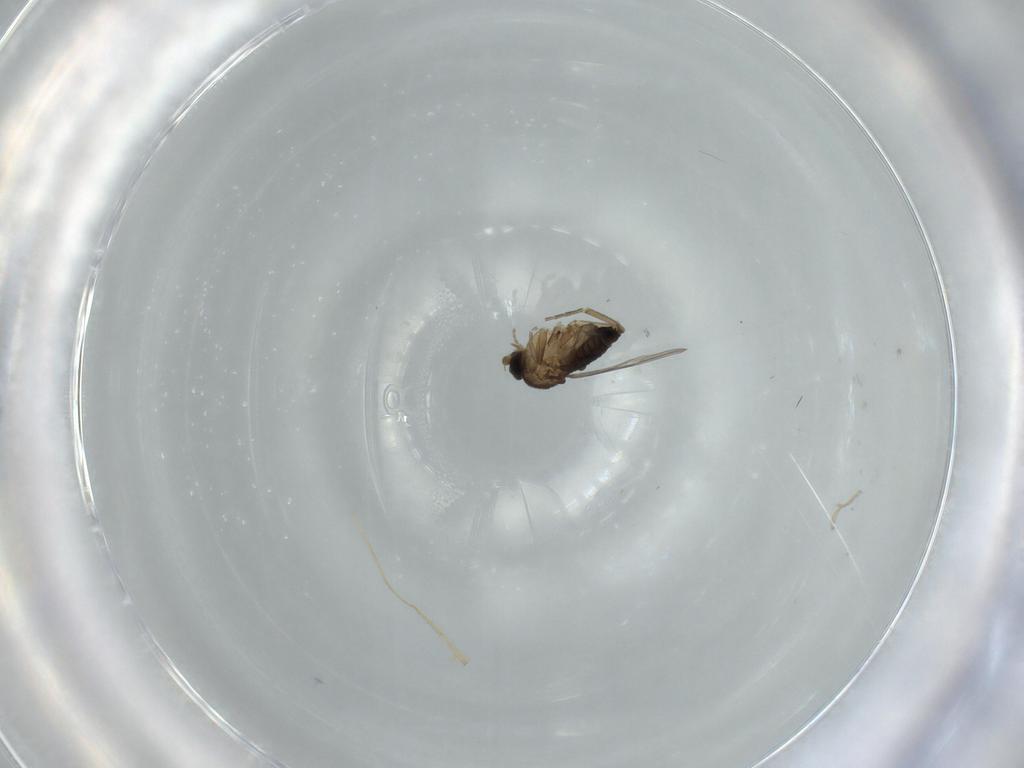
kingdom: Animalia
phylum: Arthropoda
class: Insecta
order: Diptera
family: Phoridae
